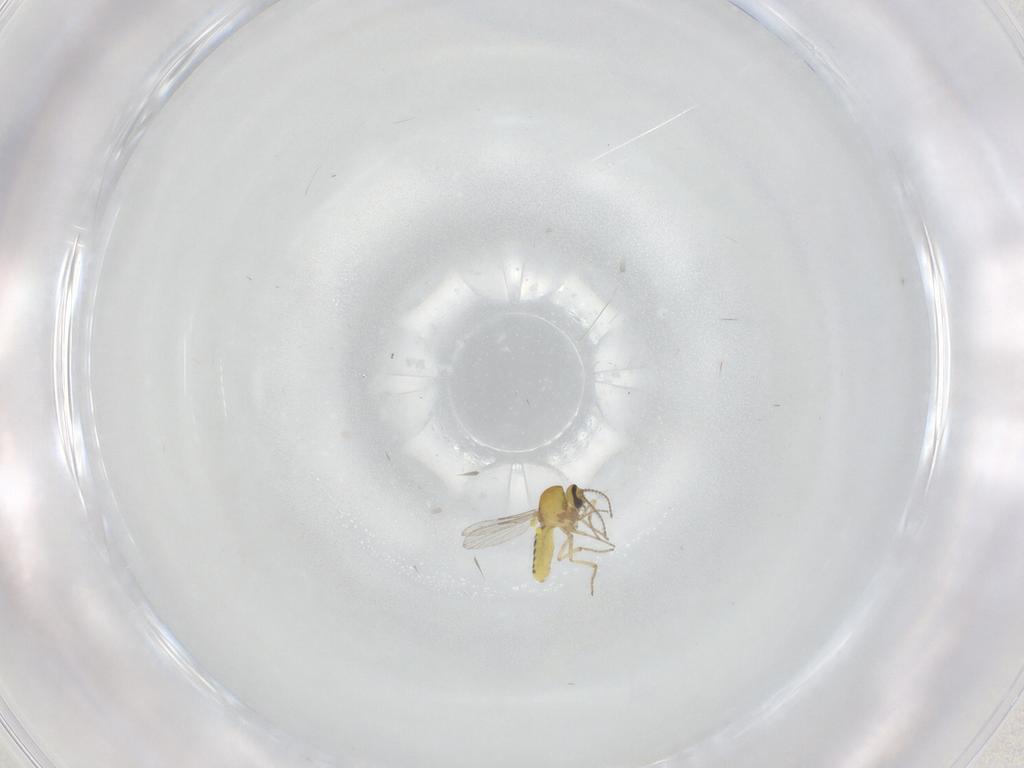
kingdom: Animalia
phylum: Arthropoda
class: Insecta
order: Diptera
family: Ceratopogonidae
